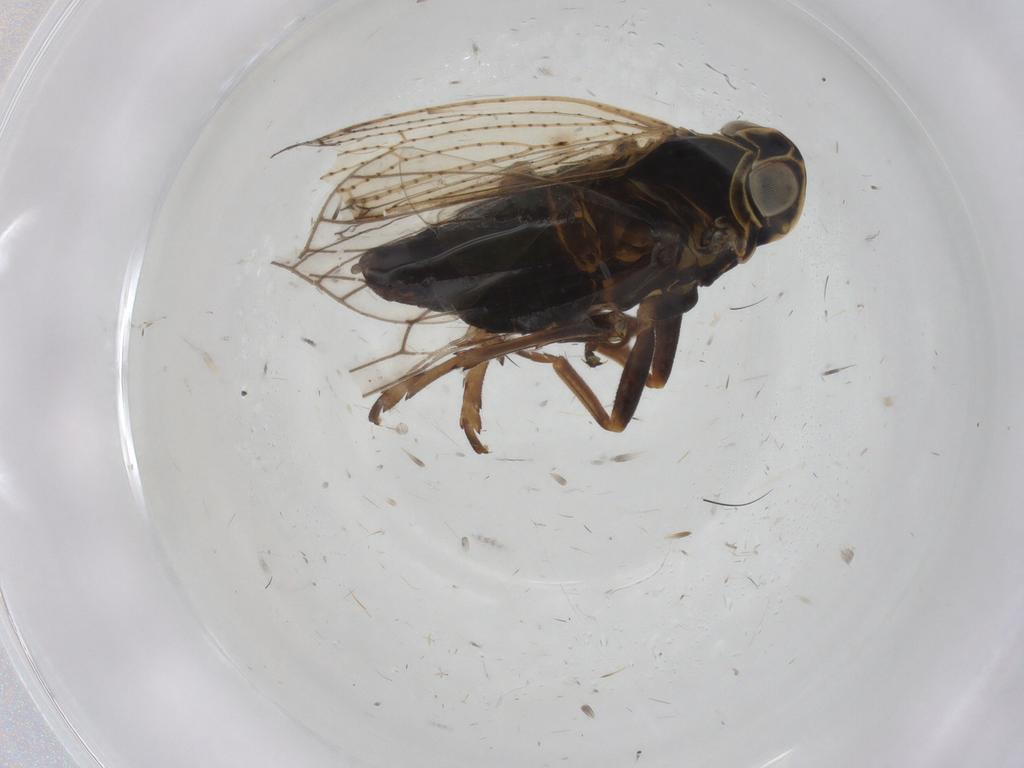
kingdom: Animalia
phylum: Arthropoda
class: Insecta
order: Hemiptera
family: Cixiidae
